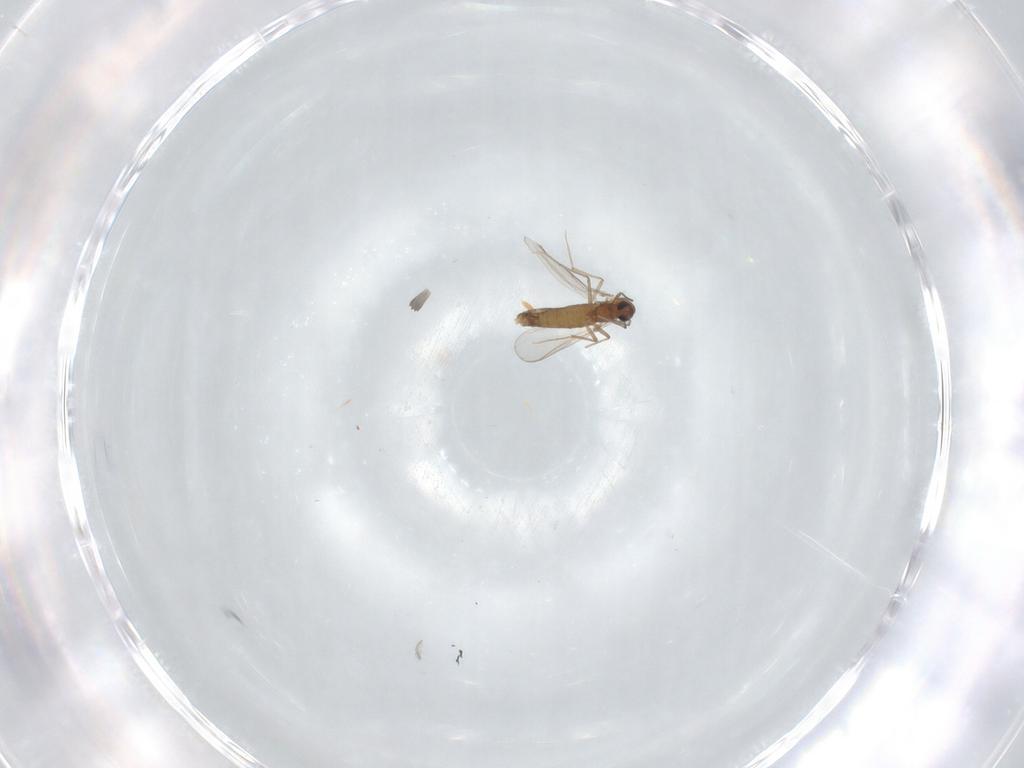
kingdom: Animalia
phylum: Arthropoda
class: Insecta
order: Diptera
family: Chironomidae
